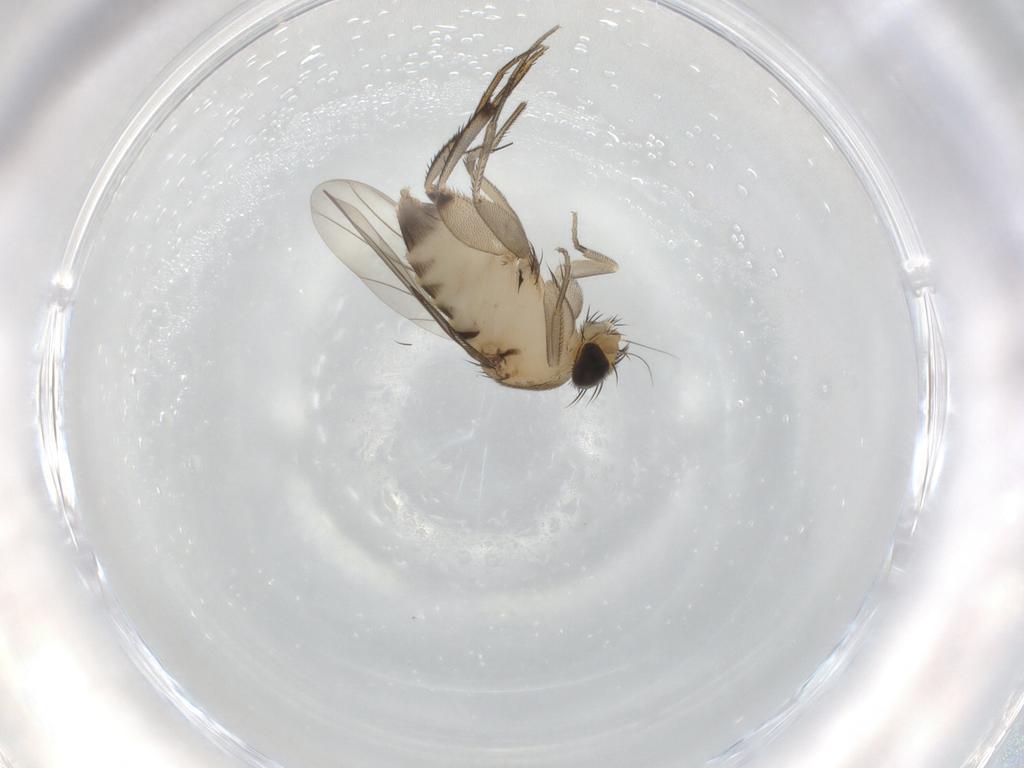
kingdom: Animalia
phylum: Arthropoda
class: Insecta
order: Diptera
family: Phoridae
